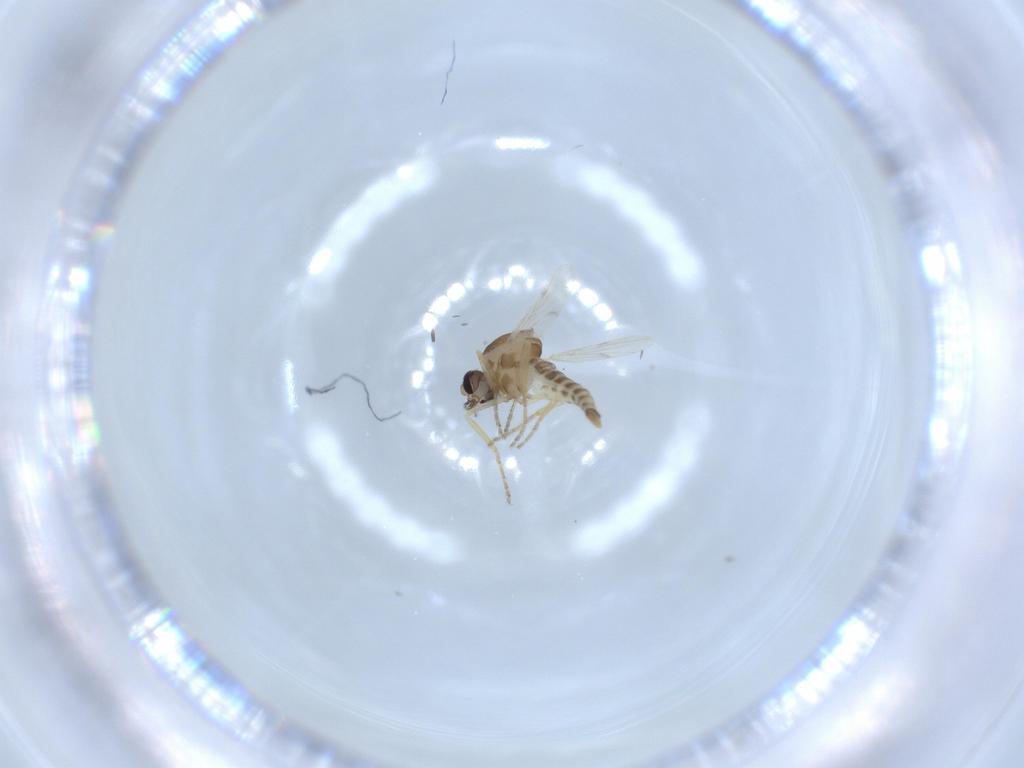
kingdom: Animalia
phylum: Arthropoda
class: Insecta
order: Diptera
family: Ceratopogonidae
